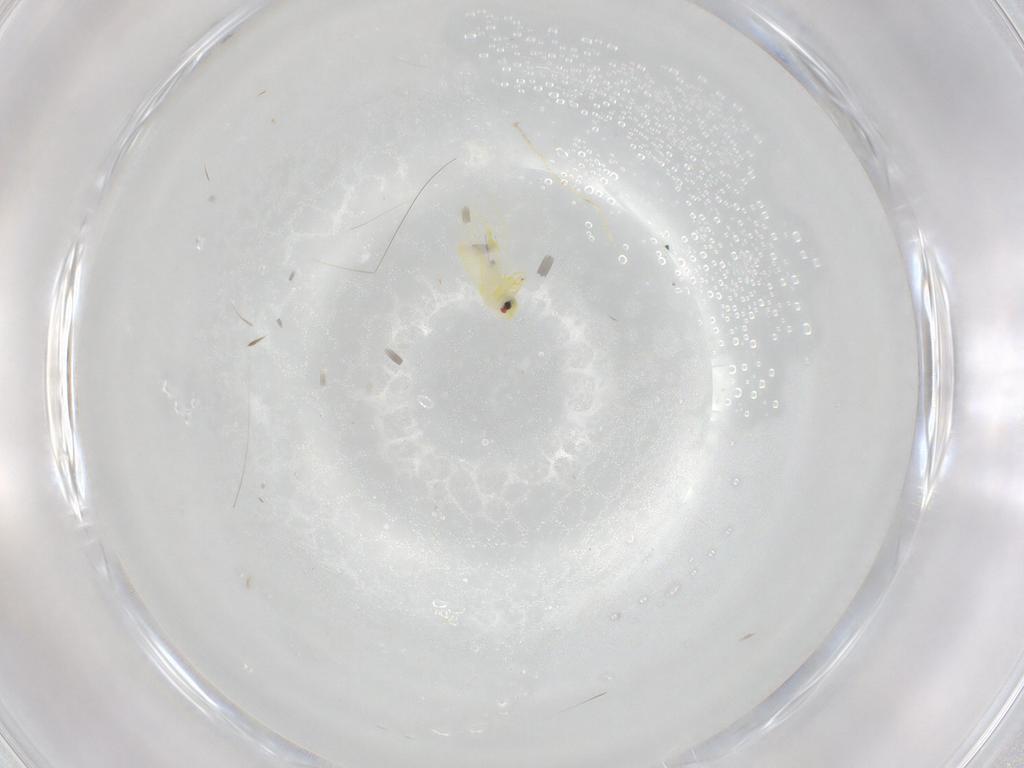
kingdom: Animalia
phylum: Arthropoda
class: Insecta
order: Hemiptera
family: Aleyrodidae
